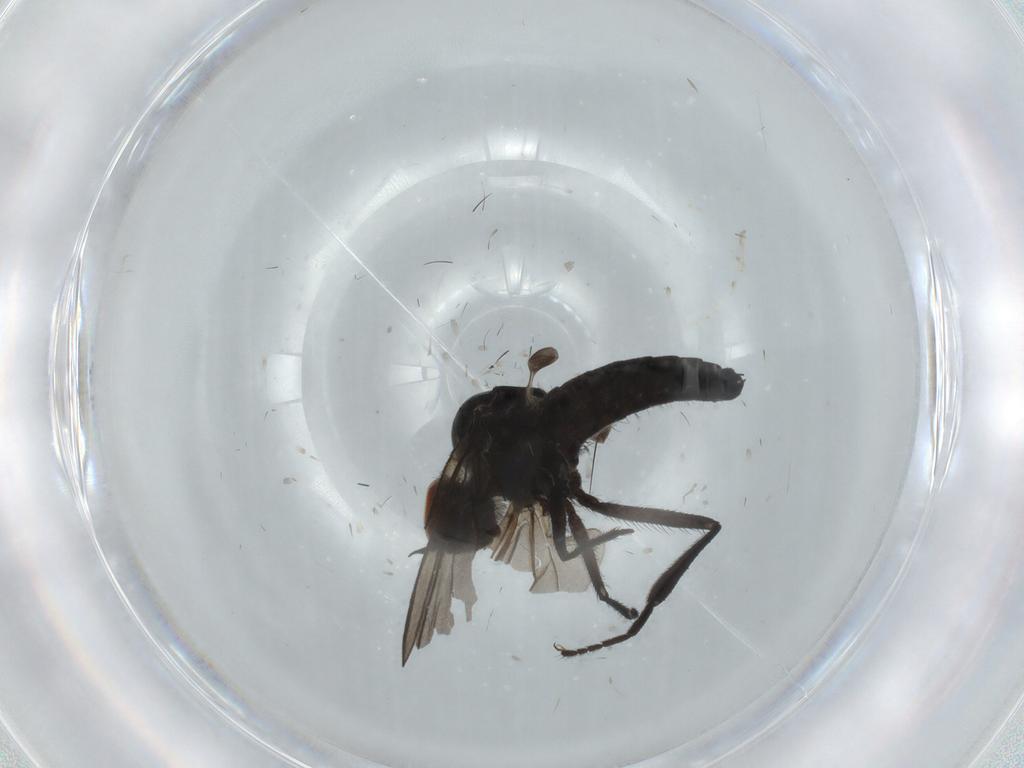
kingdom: Animalia
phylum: Arthropoda
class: Insecta
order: Diptera
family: Hybotidae
